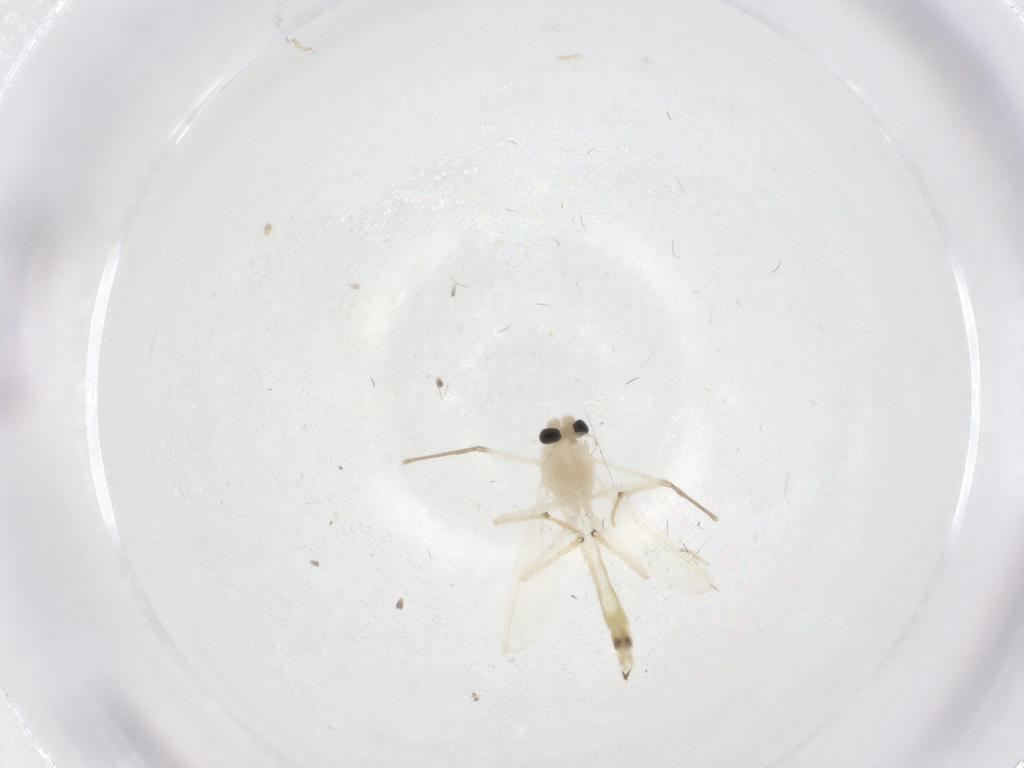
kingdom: Animalia
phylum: Arthropoda
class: Insecta
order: Diptera
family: Chironomidae
